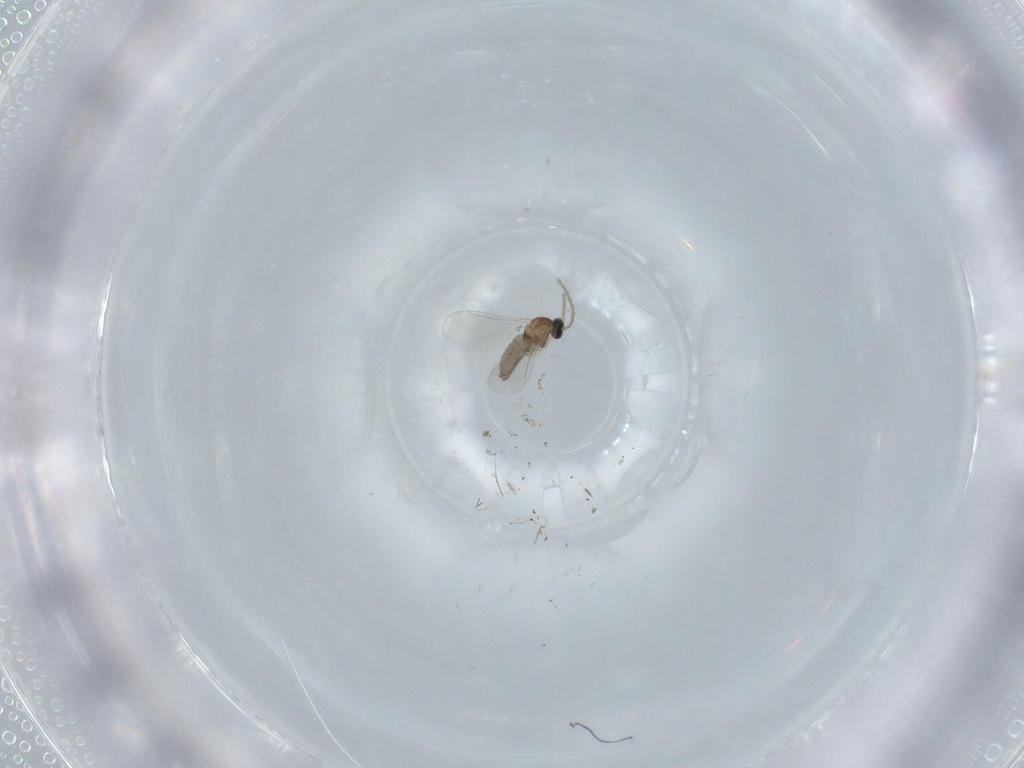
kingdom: Animalia
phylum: Arthropoda
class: Insecta
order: Diptera
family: Cecidomyiidae
